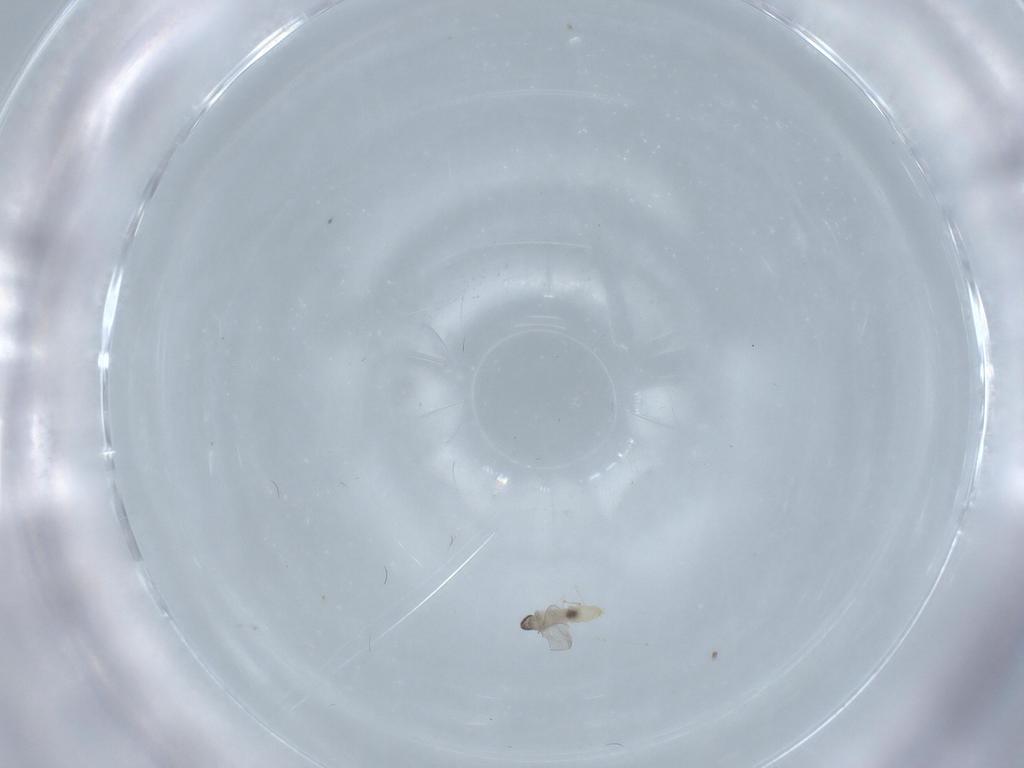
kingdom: Animalia
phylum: Arthropoda
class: Insecta
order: Diptera
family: Cecidomyiidae
